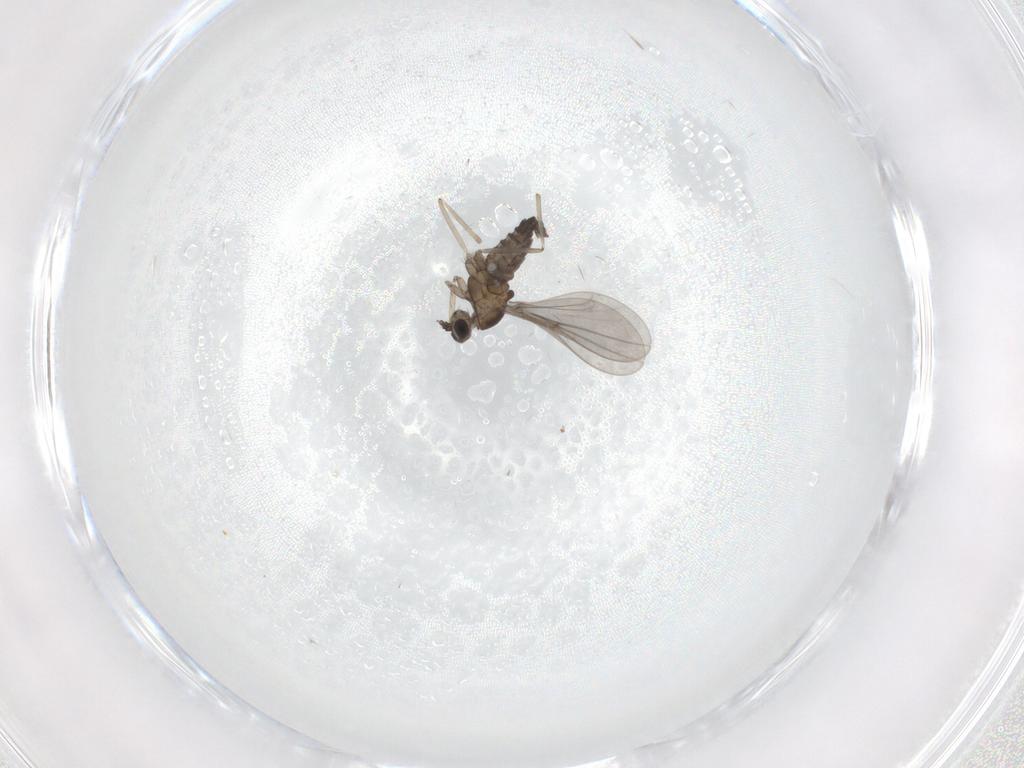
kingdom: Animalia
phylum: Arthropoda
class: Insecta
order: Diptera
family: Cecidomyiidae
